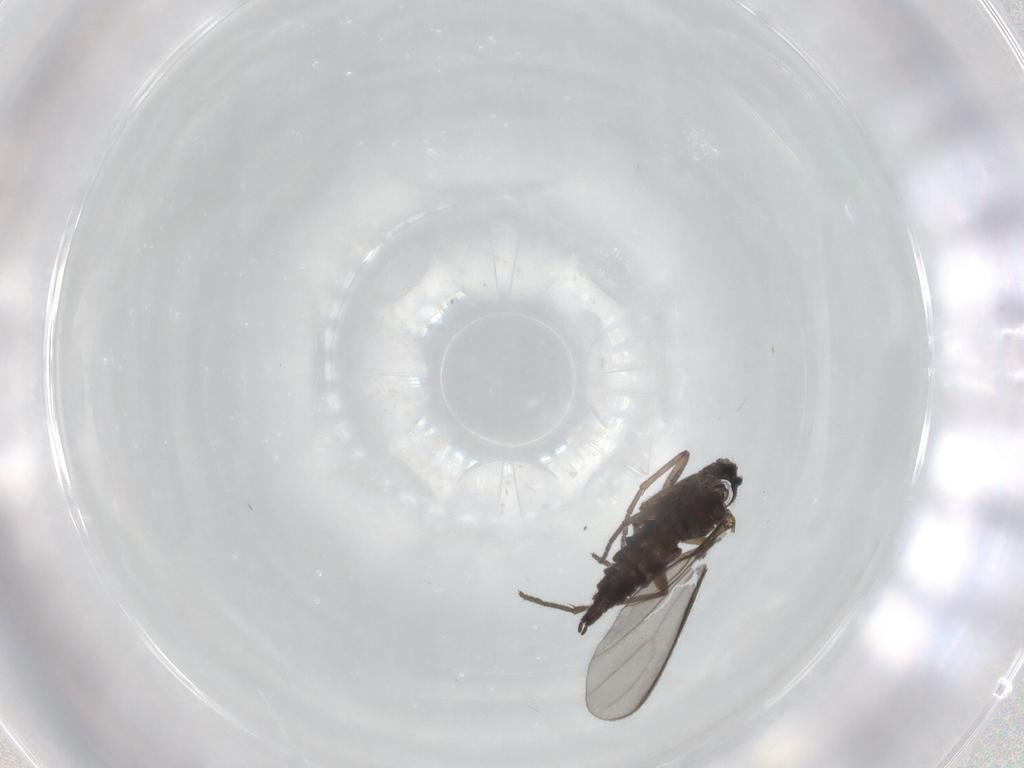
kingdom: Animalia
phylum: Arthropoda
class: Insecta
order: Diptera
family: Sciaridae
